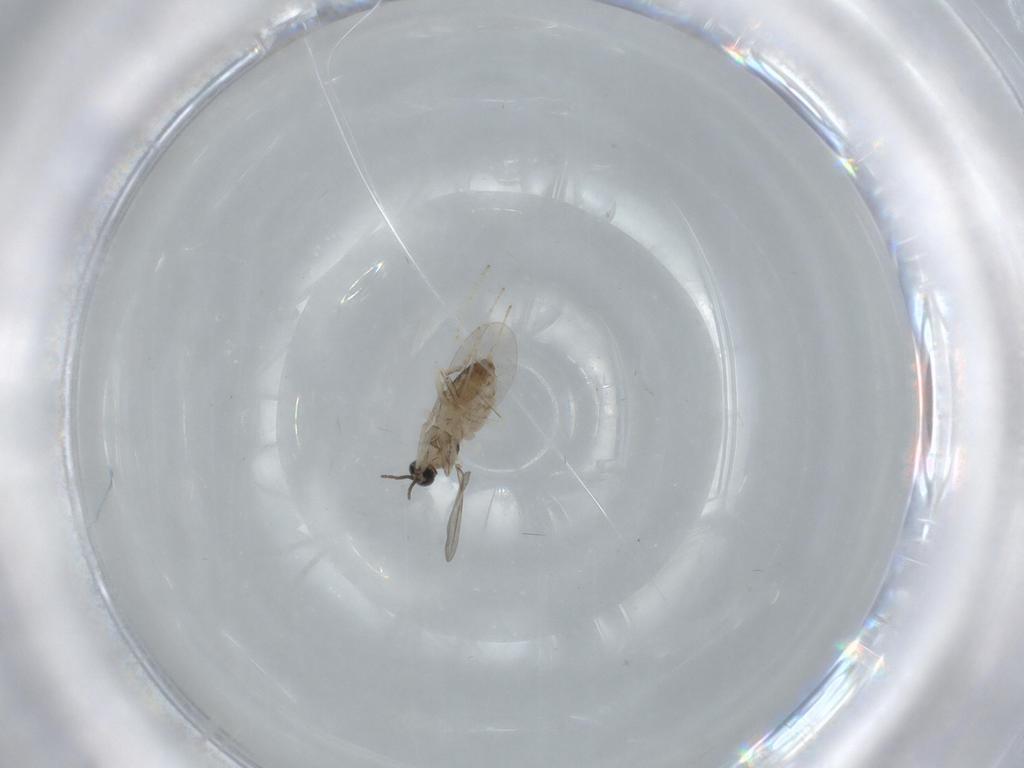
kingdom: Animalia
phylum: Arthropoda
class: Insecta
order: Diptera
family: Cecidomyiidae
